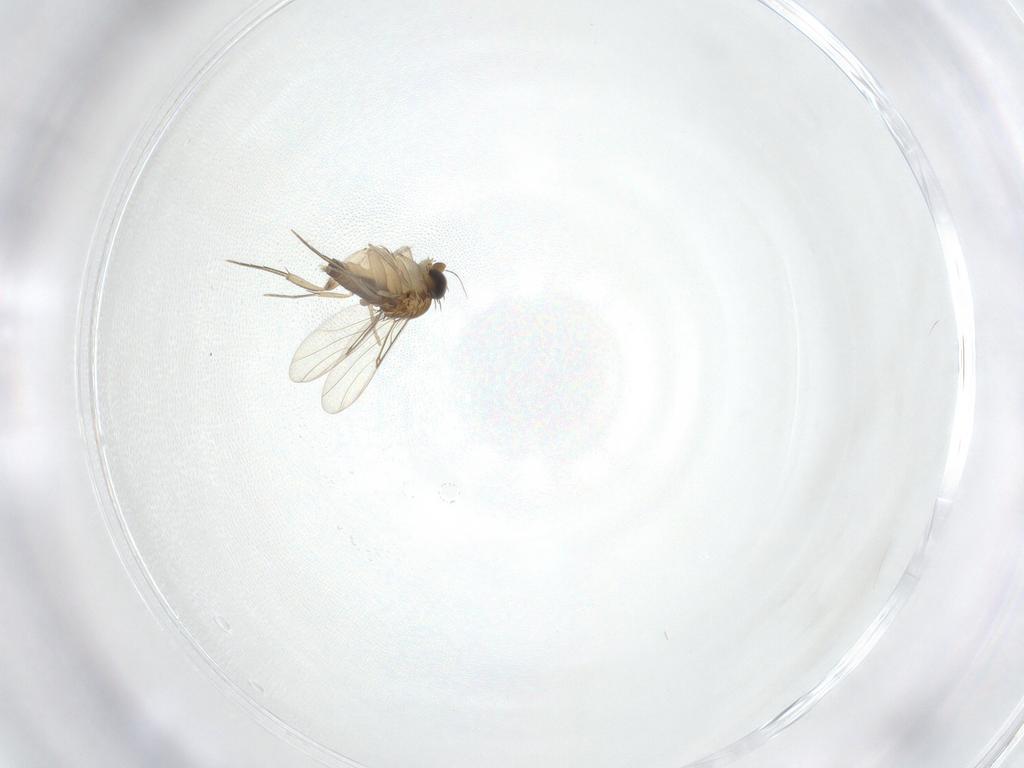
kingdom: Animalia
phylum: Arthropoda
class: Insecta
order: Diptera
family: Phoridae
